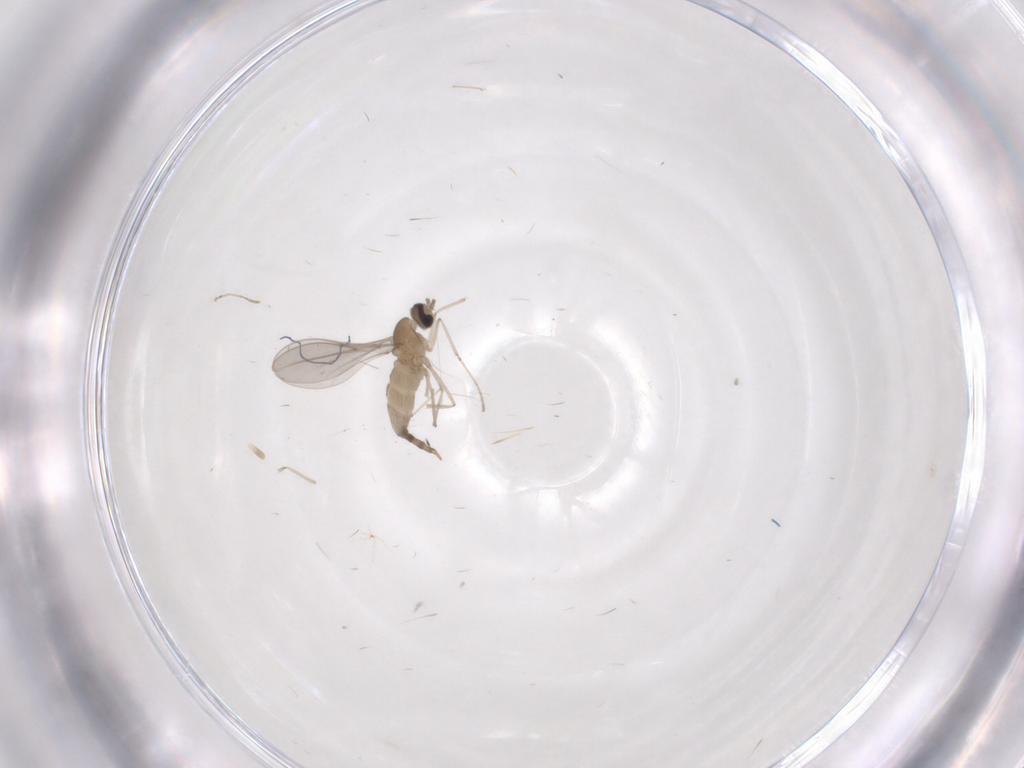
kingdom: Animalia
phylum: Arthropoda
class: Insecta
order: Diptera
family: Cecidomyiidae
